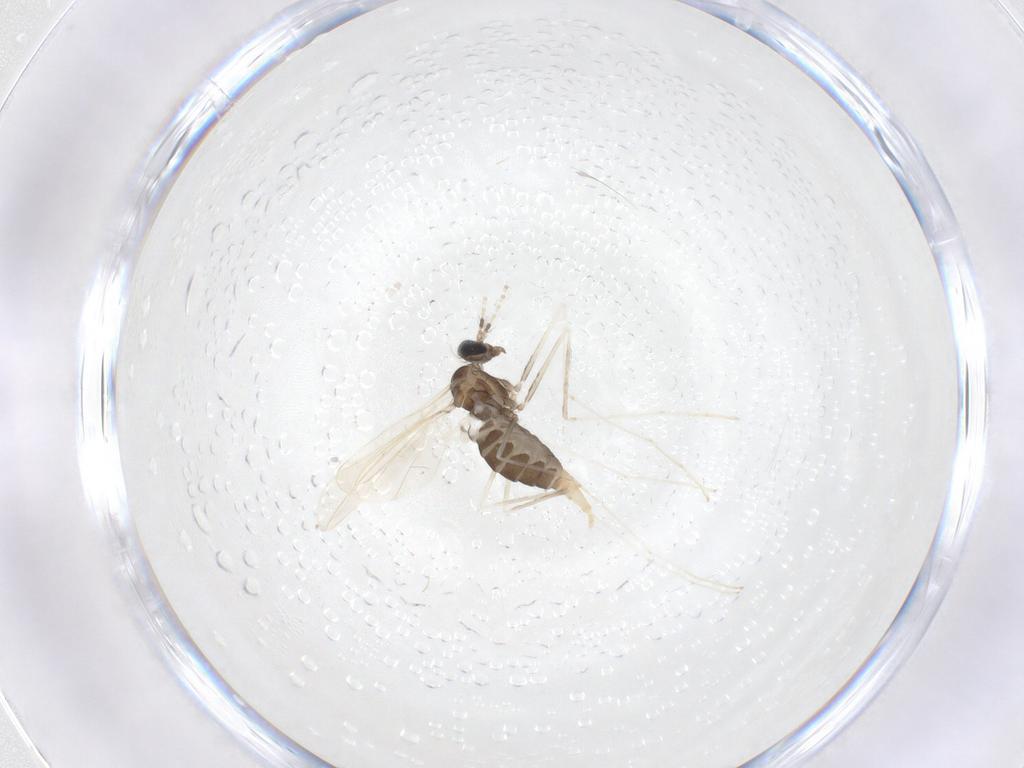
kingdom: Animalia
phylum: Arthropoda
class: Insecta
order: Diptera
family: Cecidomyiidae
